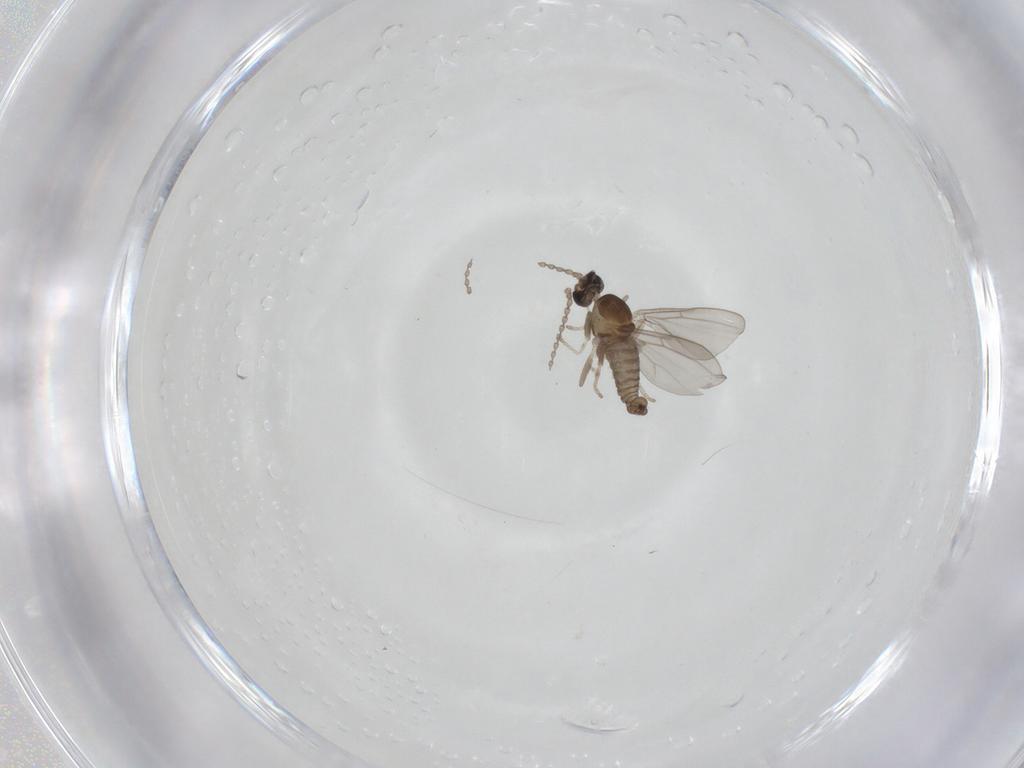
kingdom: Animalia
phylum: Arthropoda
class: Insecta
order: Diptera
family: Cecidomyiidae
